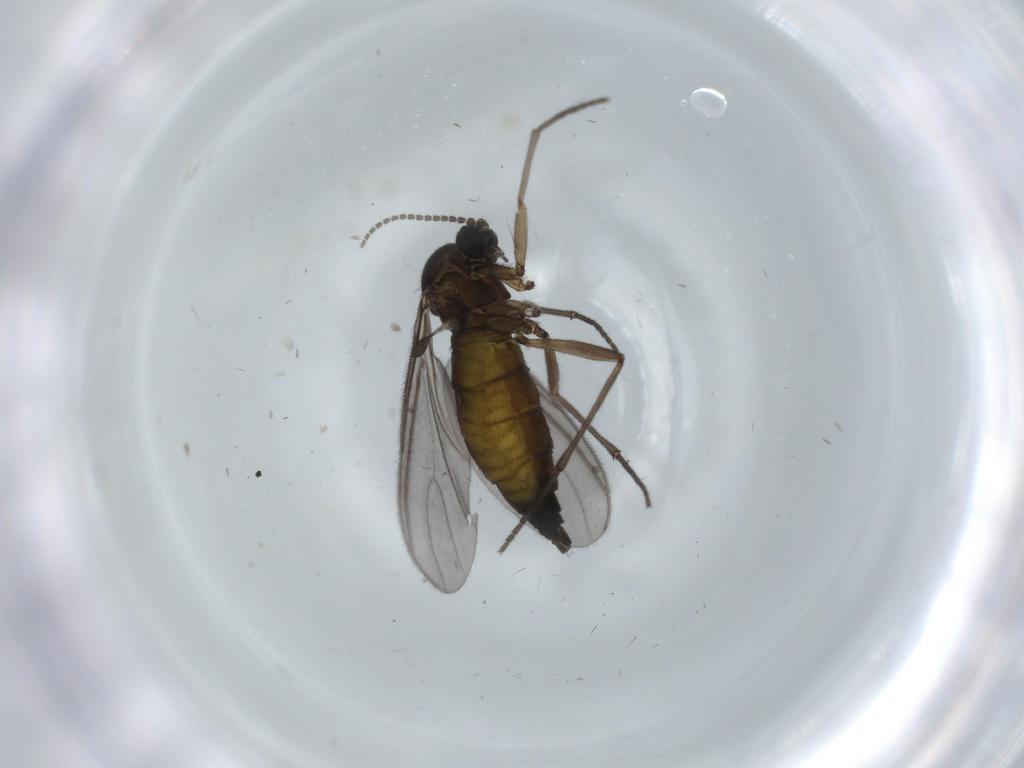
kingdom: Animalia
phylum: Arthropoda
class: Insecta
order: Diptera
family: Sciaridae
